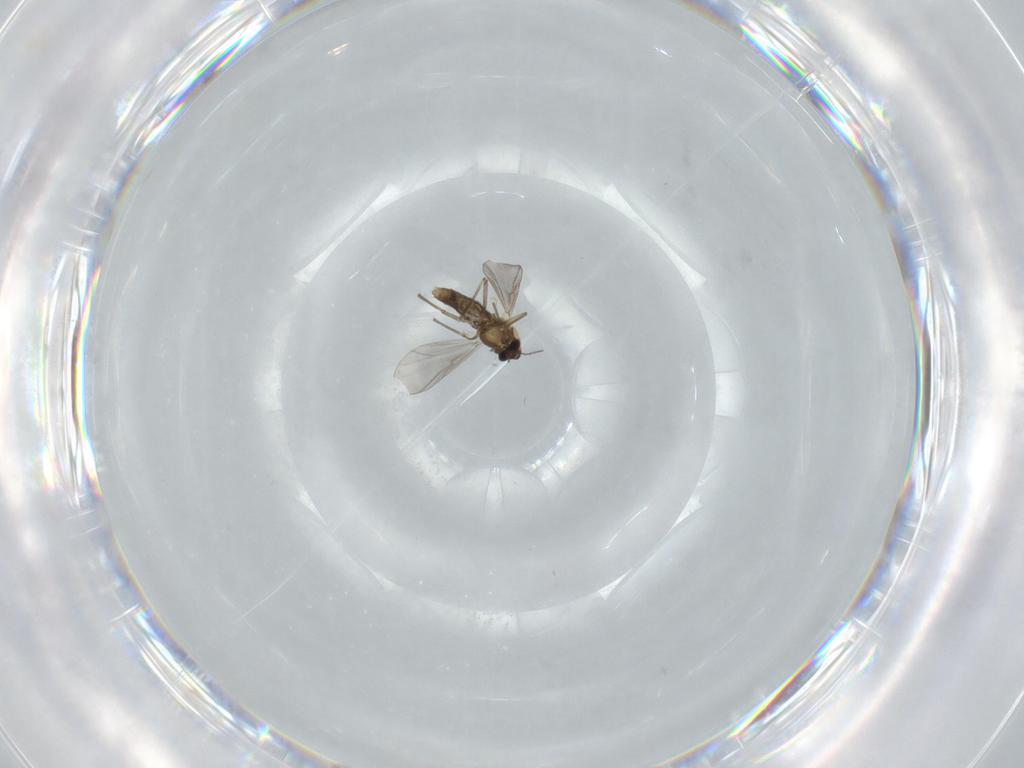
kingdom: Animalia
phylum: Arthropoda
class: Insecta
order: Diptera
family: Chironomidae
